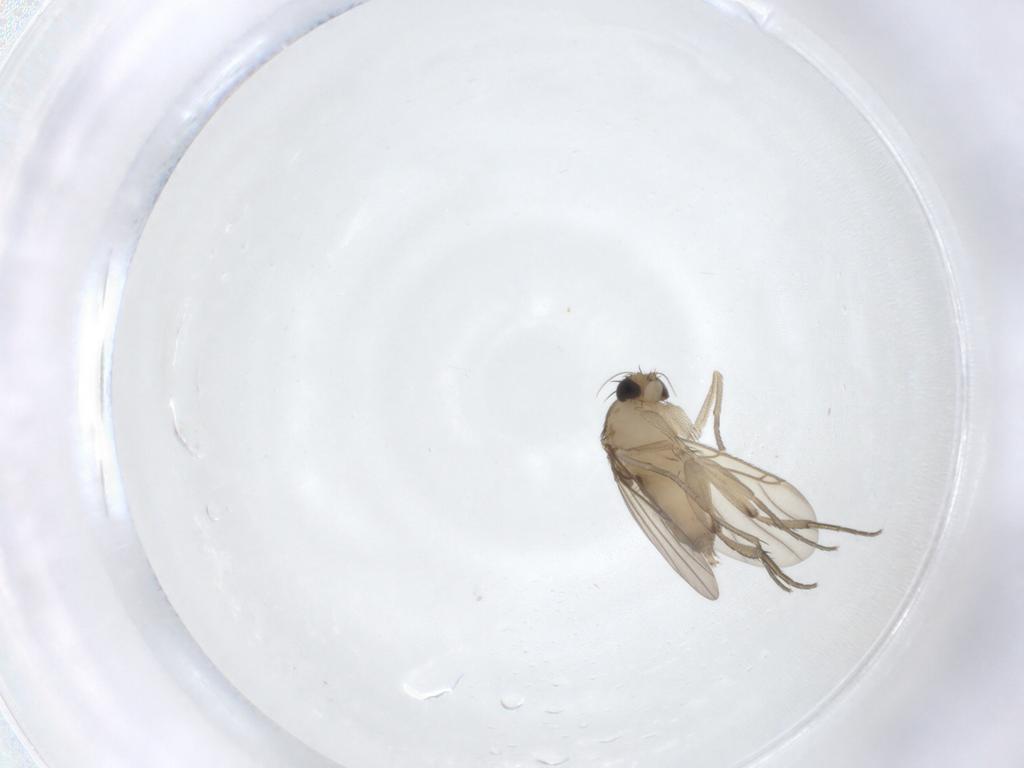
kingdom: Animalia
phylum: Arthropoda
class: Insecta
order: Diptera
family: Phoridae
